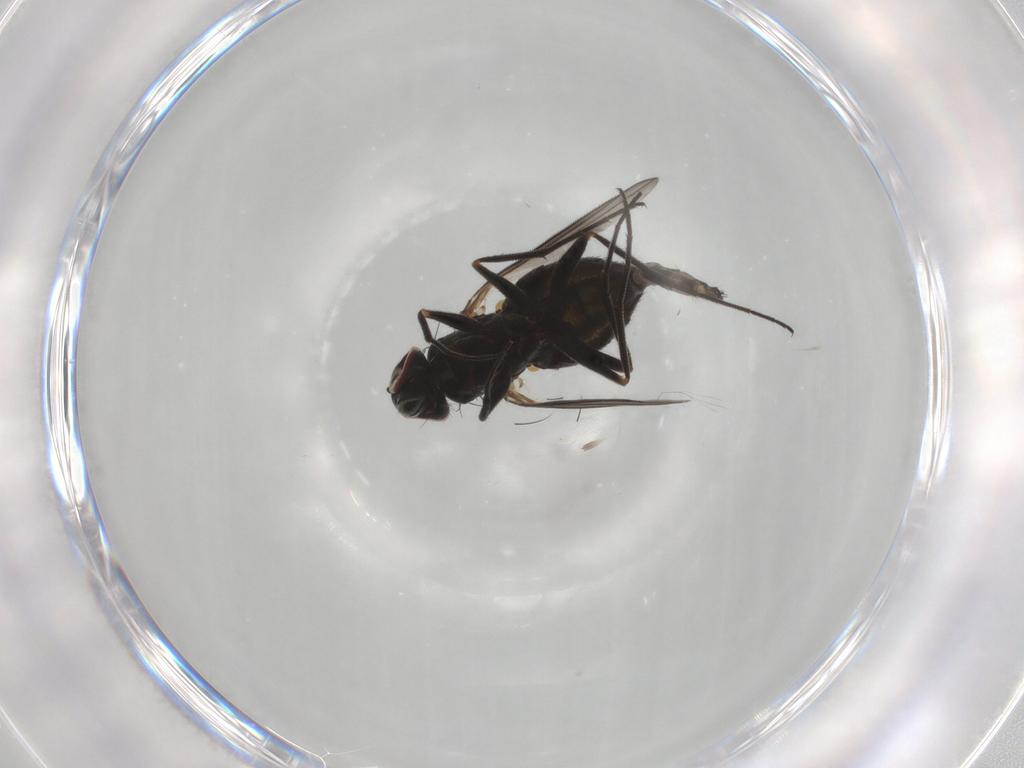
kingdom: Animalia
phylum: Arthropoda
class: Insecta
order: Diptera
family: Dolichopodidae
